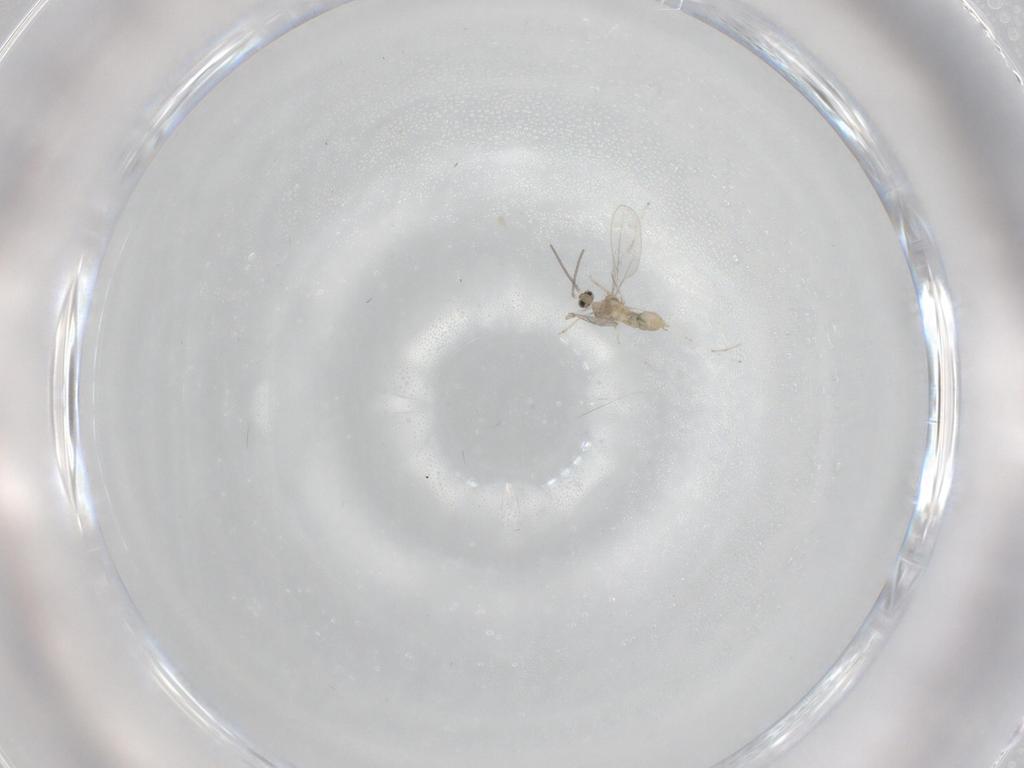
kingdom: Animalia
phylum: Arthropoda
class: Insecta
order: Diptera
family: Cecidomyiidae
